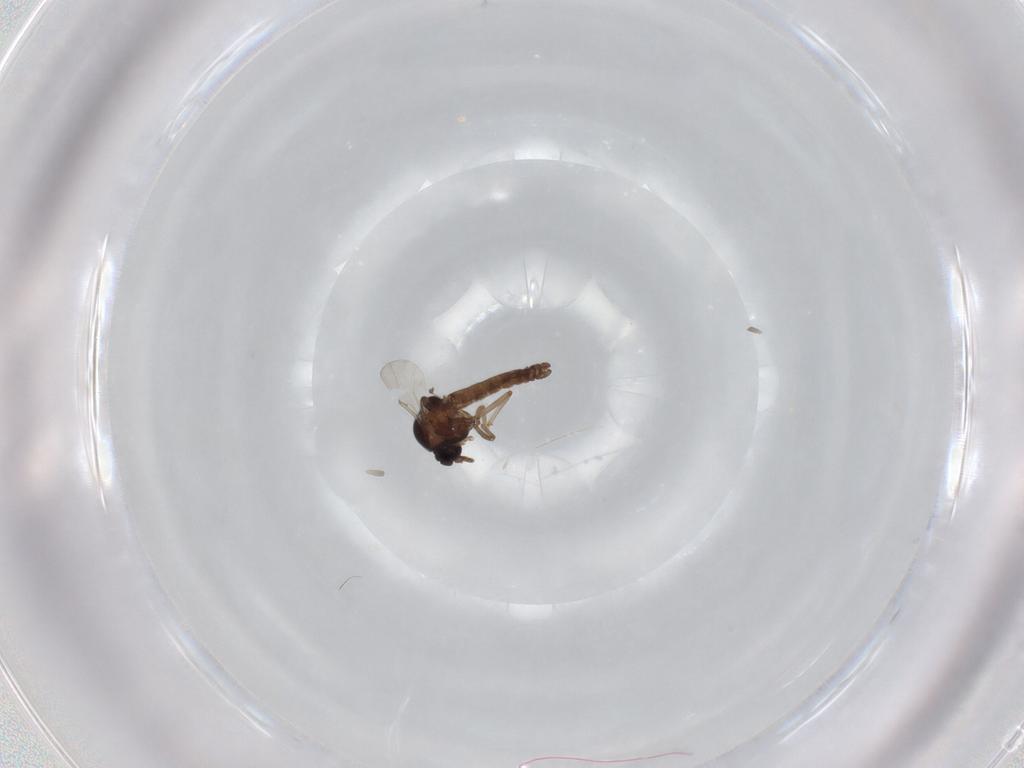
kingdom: Animalia
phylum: Arthropoda
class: Insecta
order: Diptera
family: Ceratopogonidae
